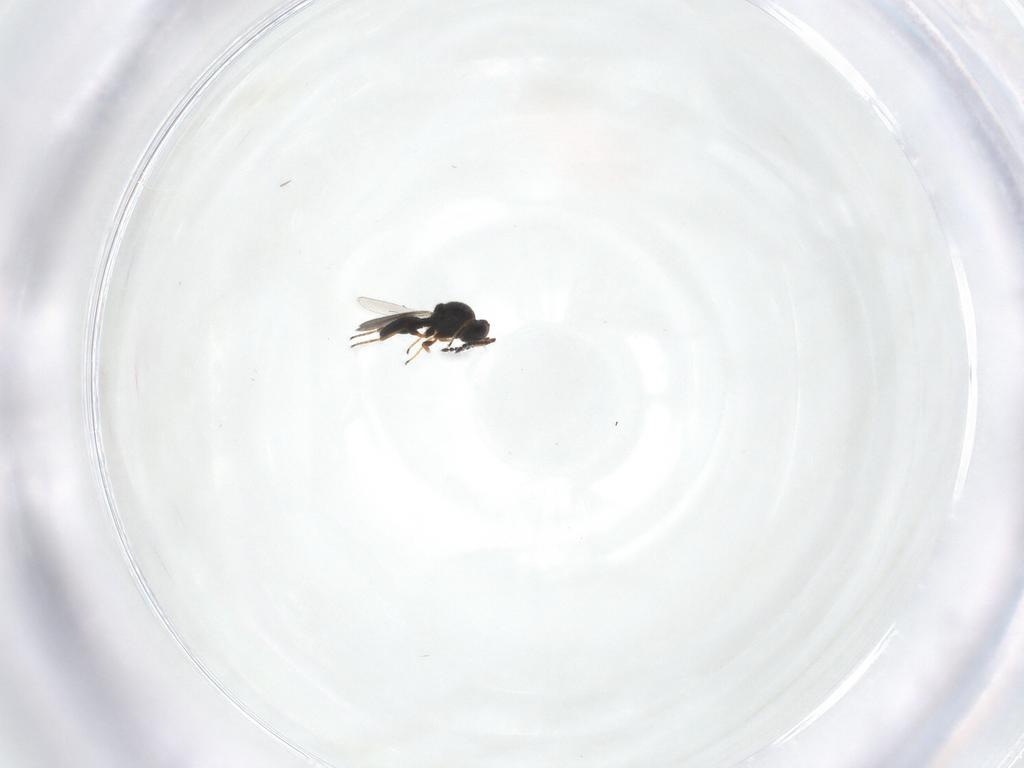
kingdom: Animalia
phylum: Arthropoda
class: Insecta
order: Hymenoptera
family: Platygastridae
